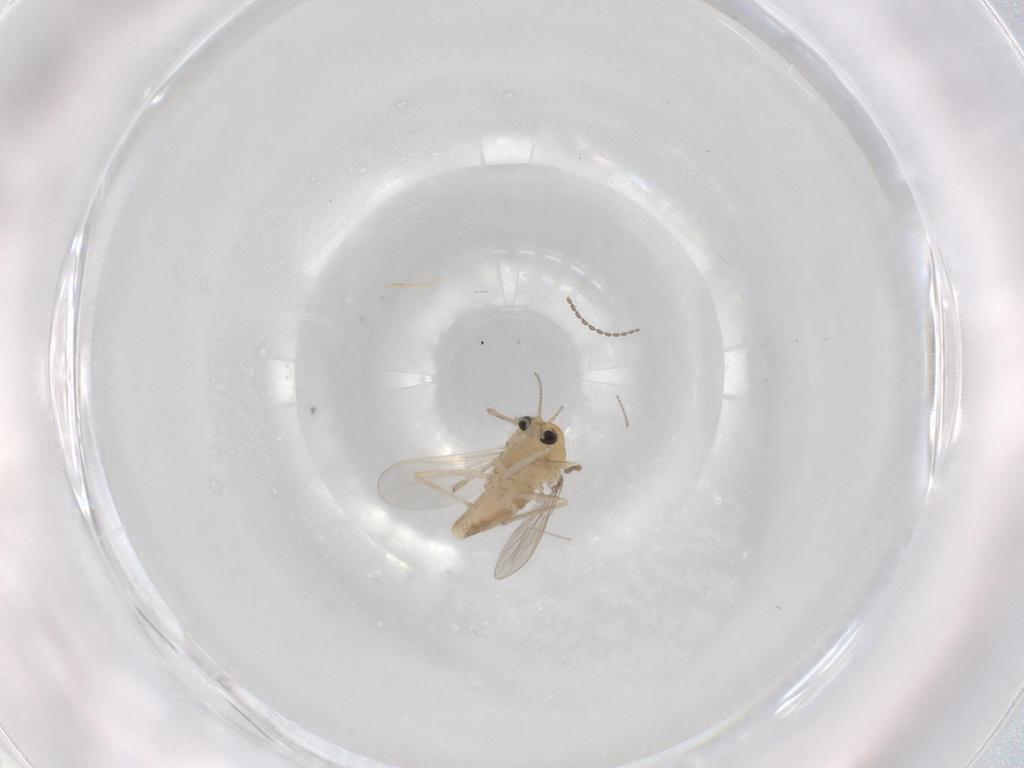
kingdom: Animalia
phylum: Arthropoda
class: Insecta
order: Diptera
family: Chironomidae
